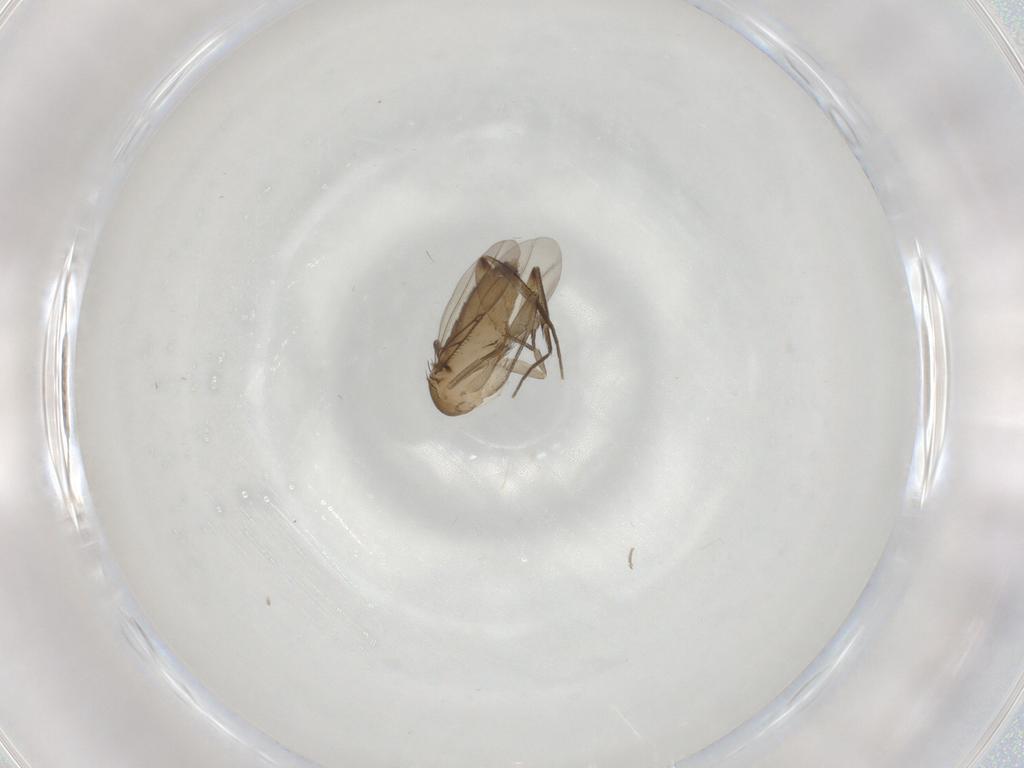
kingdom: Animalia
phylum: Arthropoda
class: Insecta
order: Diptera
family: Phoridae
